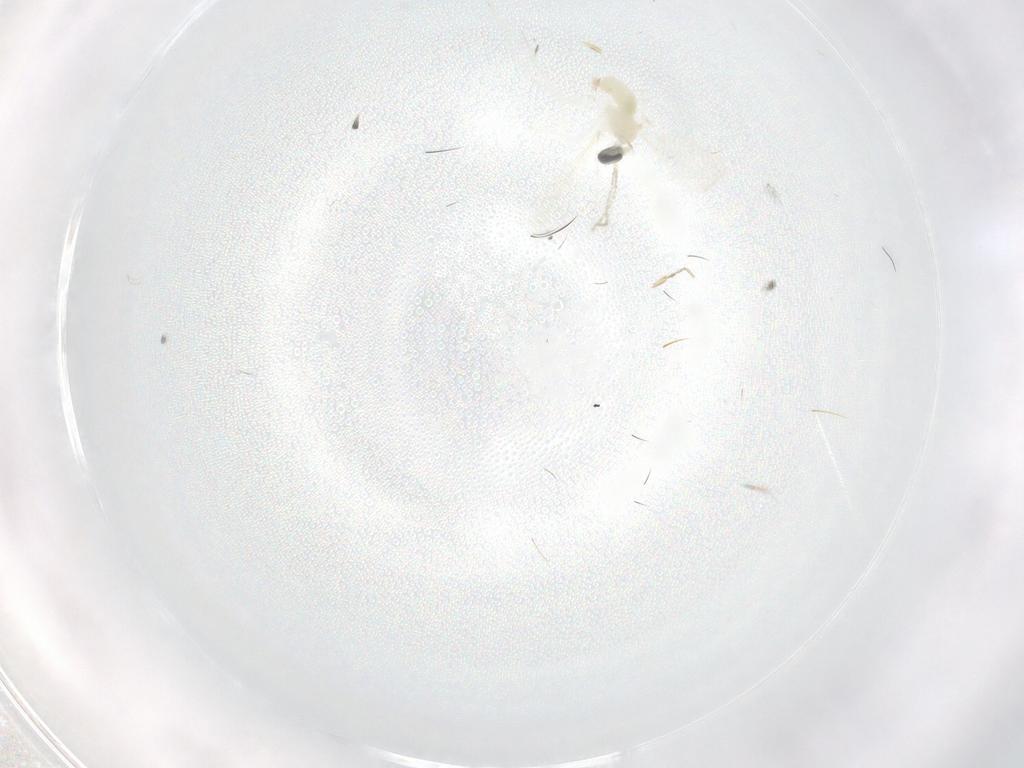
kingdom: Animalia
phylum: Arthropoda
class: Insecta
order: Diptera
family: Cecidomyiidae
